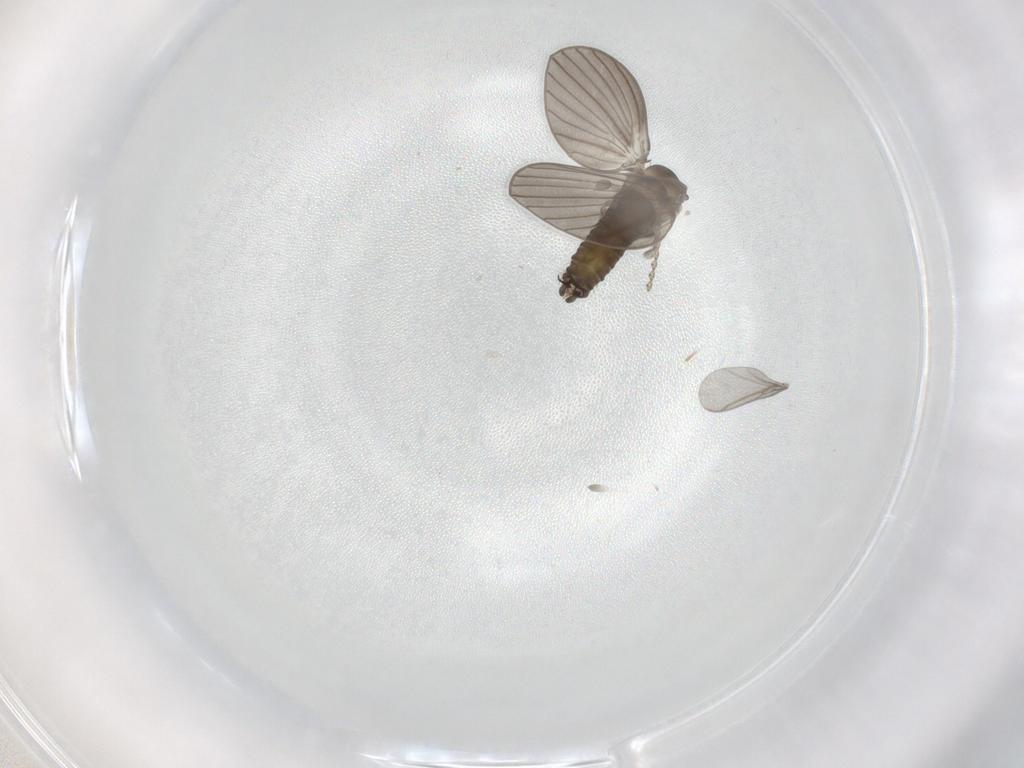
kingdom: Animalia
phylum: Arthropoda
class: Insecta
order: Diptera
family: Psychodidae
